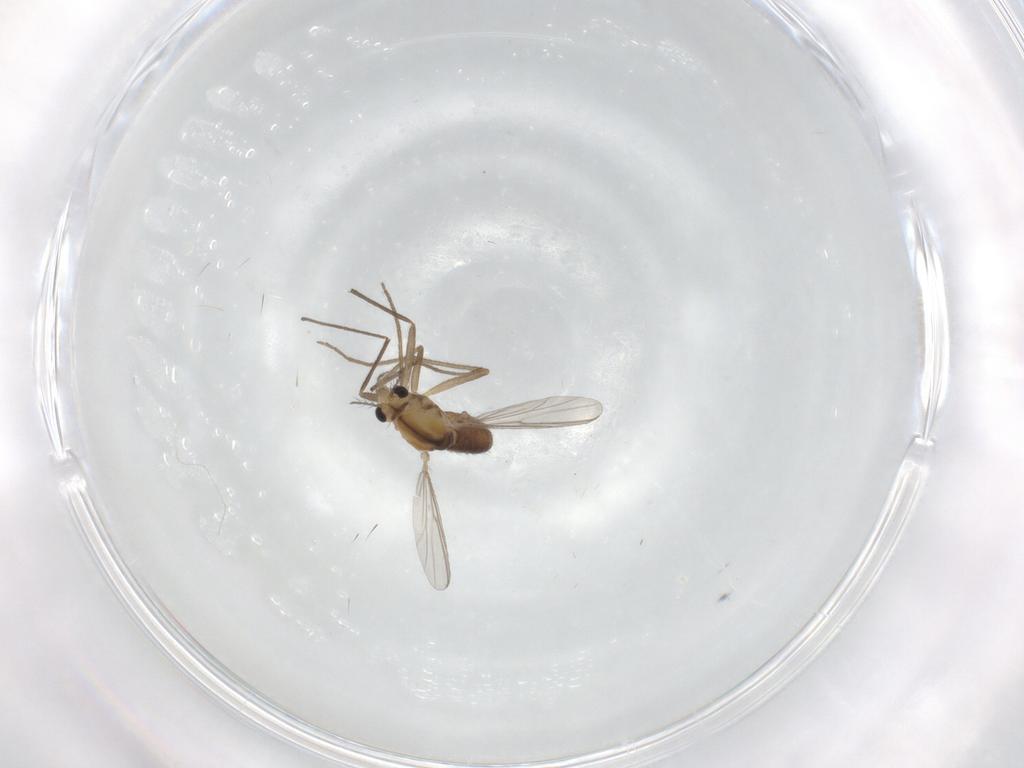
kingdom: Animalia
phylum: Arthropoda
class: Insecta
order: Diptera
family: Chironomidae
